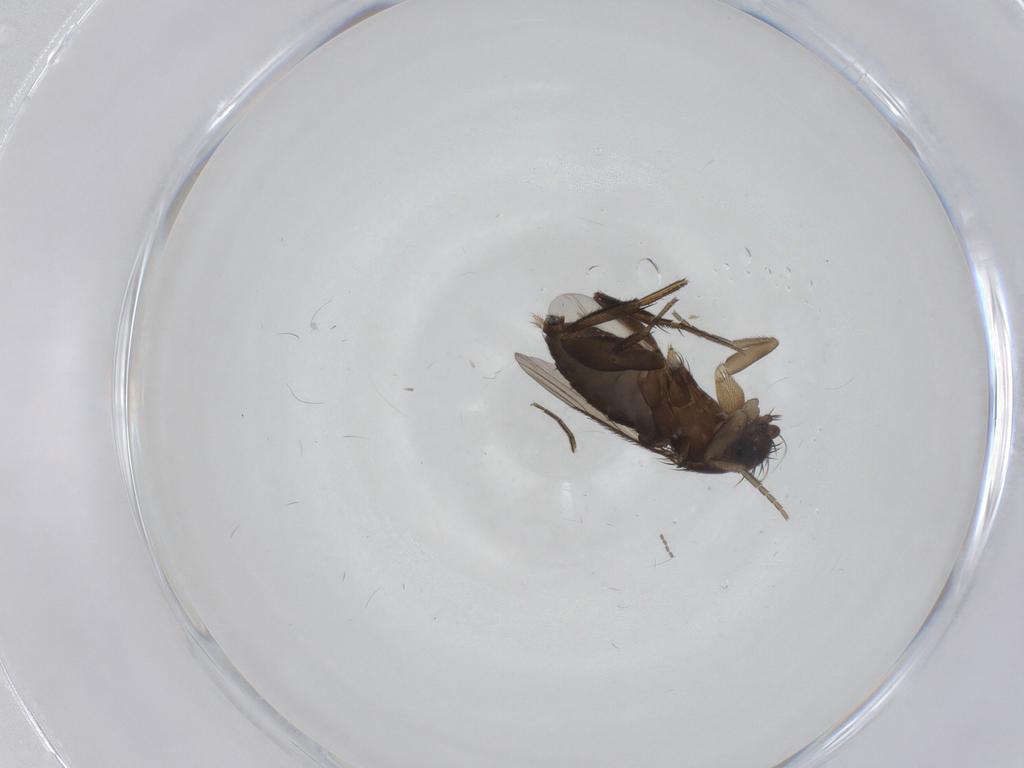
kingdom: Animalia
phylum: Arthropoda
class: Insecta
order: Diptera
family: Phoridae
